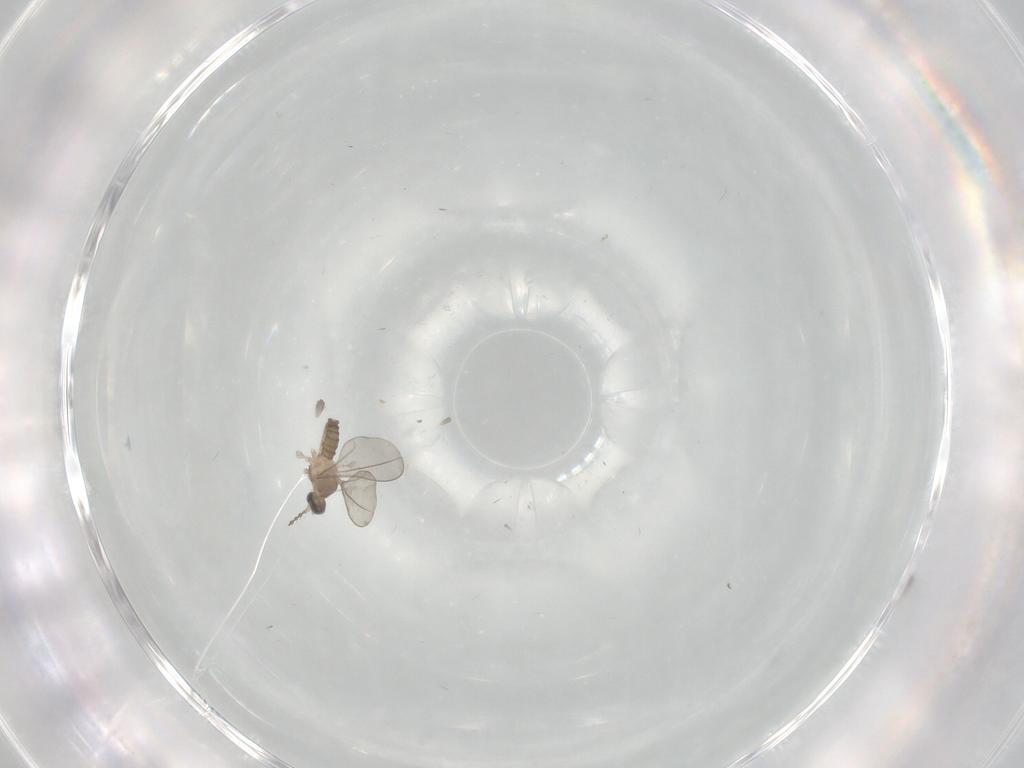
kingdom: Animalia
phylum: Arthropoda
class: Insecta
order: Diptera
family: Cecidomyiidae
